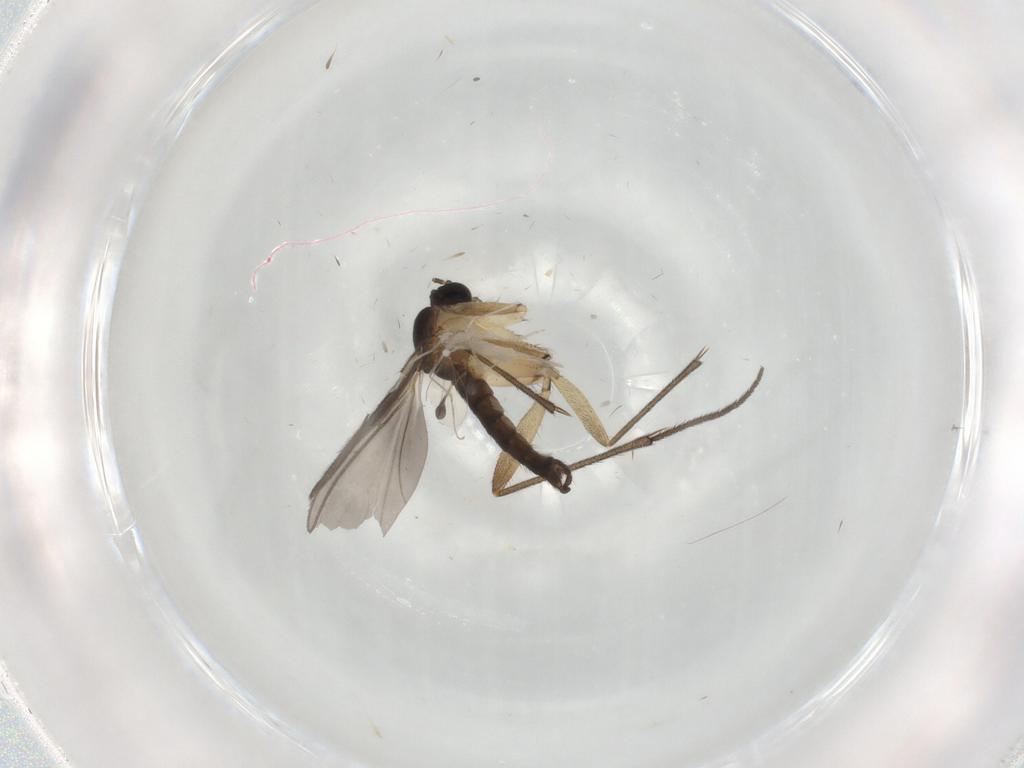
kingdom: Animalia
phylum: Arthropoda
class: Insecta
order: Diptera
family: Sciaridae
